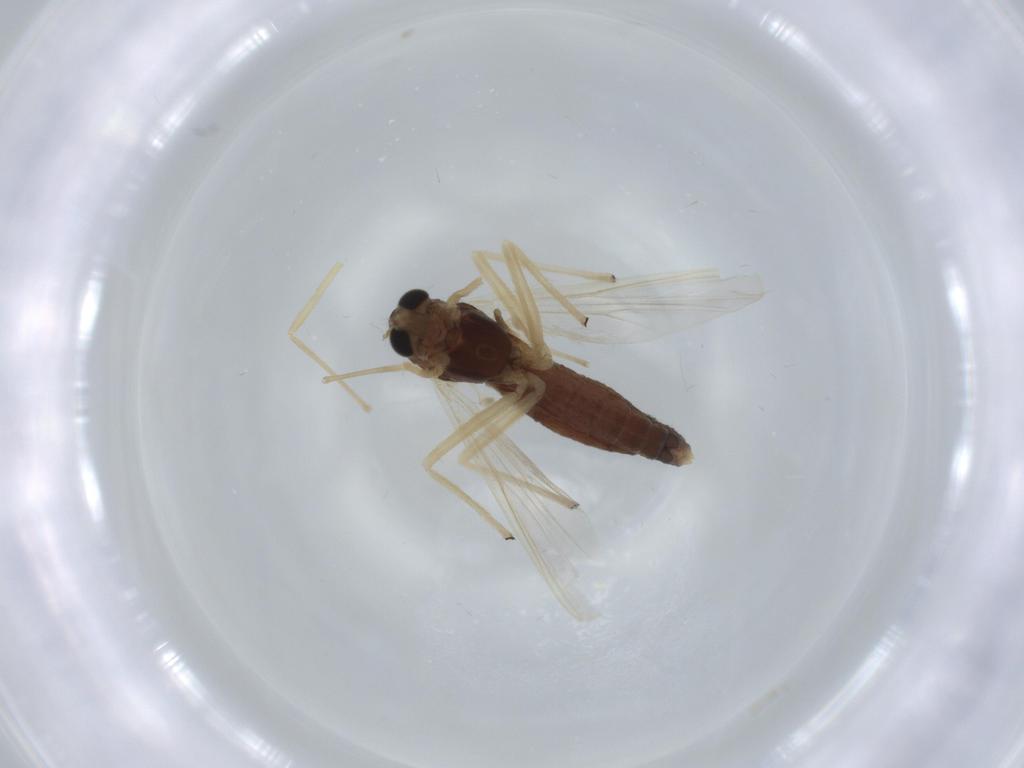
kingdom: Animalia
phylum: Arthropoda
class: Insecta
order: Diptera
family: Chironomidae
